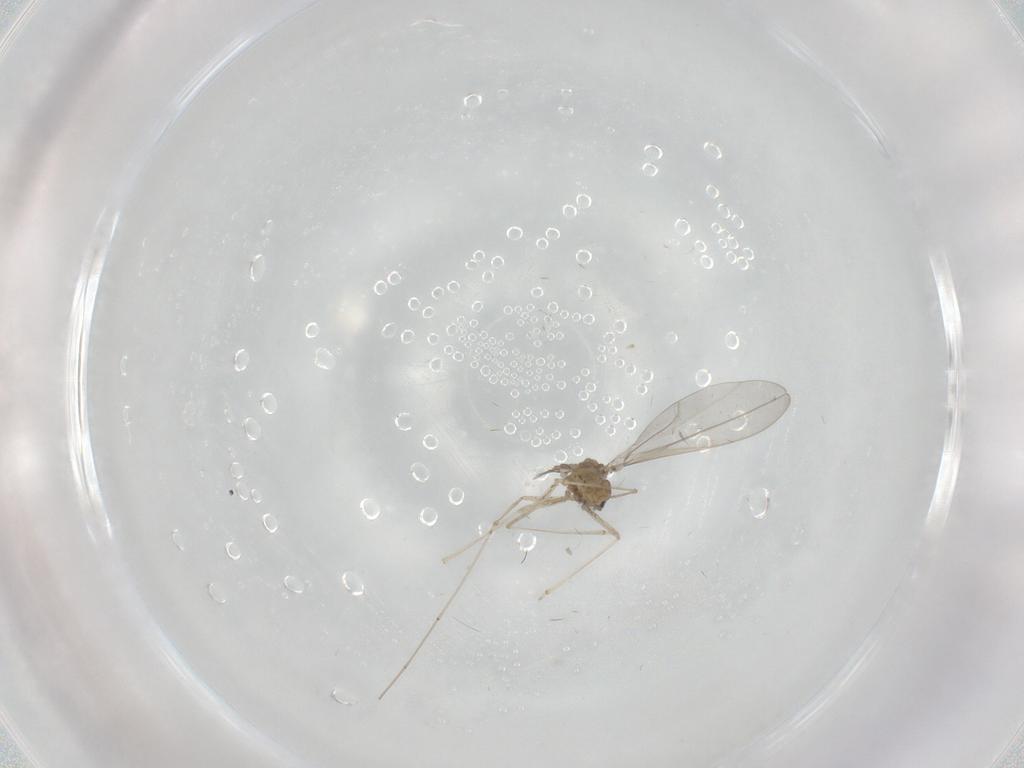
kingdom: Animalia
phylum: Arthropoda
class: Insecta
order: Diptera
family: Cecidomyiidae
